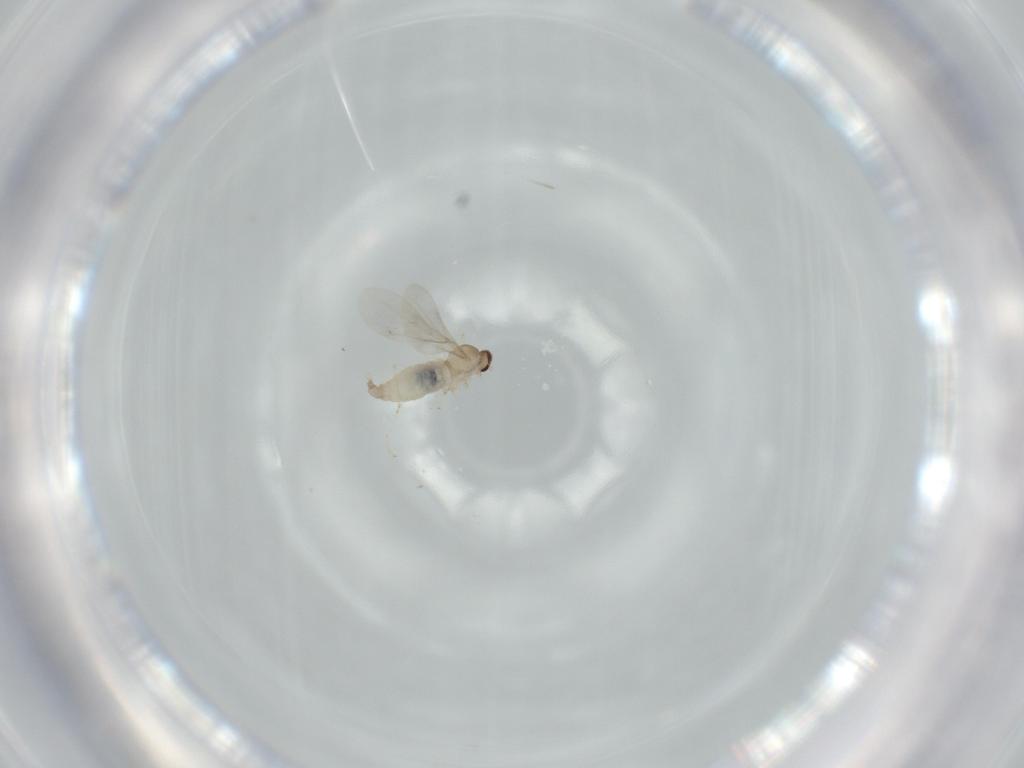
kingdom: Animalia
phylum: Arthropoda
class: Insecta
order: Diptera
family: Cecidomyiidae
